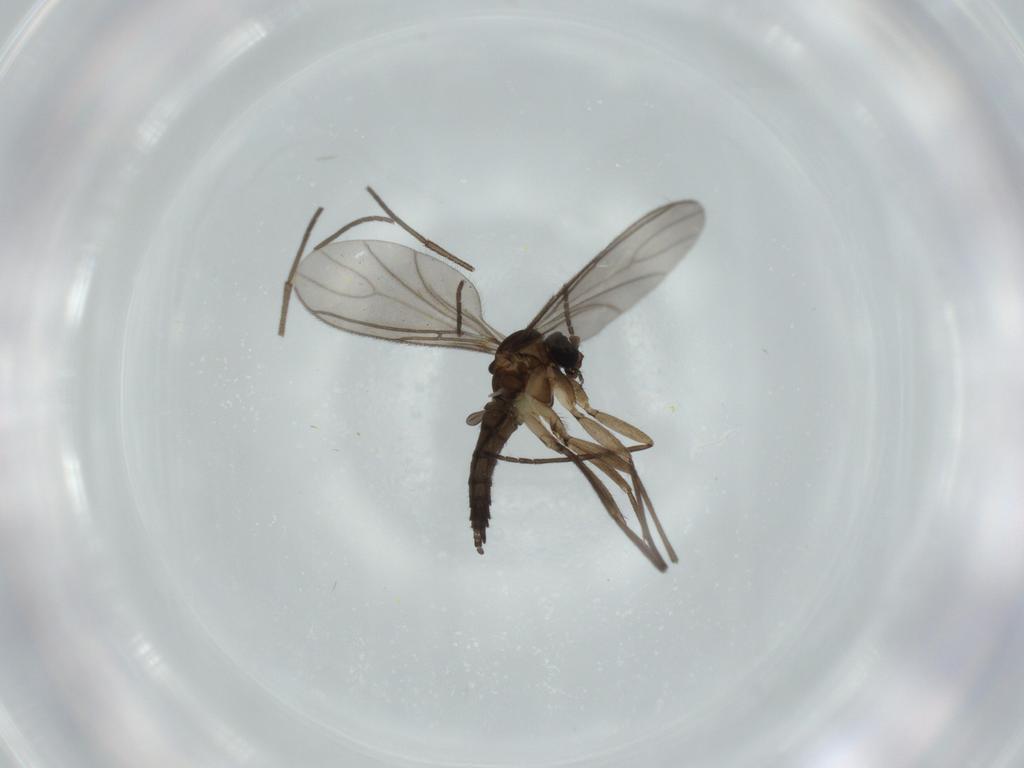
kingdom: Animalia
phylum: Arthropoda
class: Insecta
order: Diptera
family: Sciaridae
